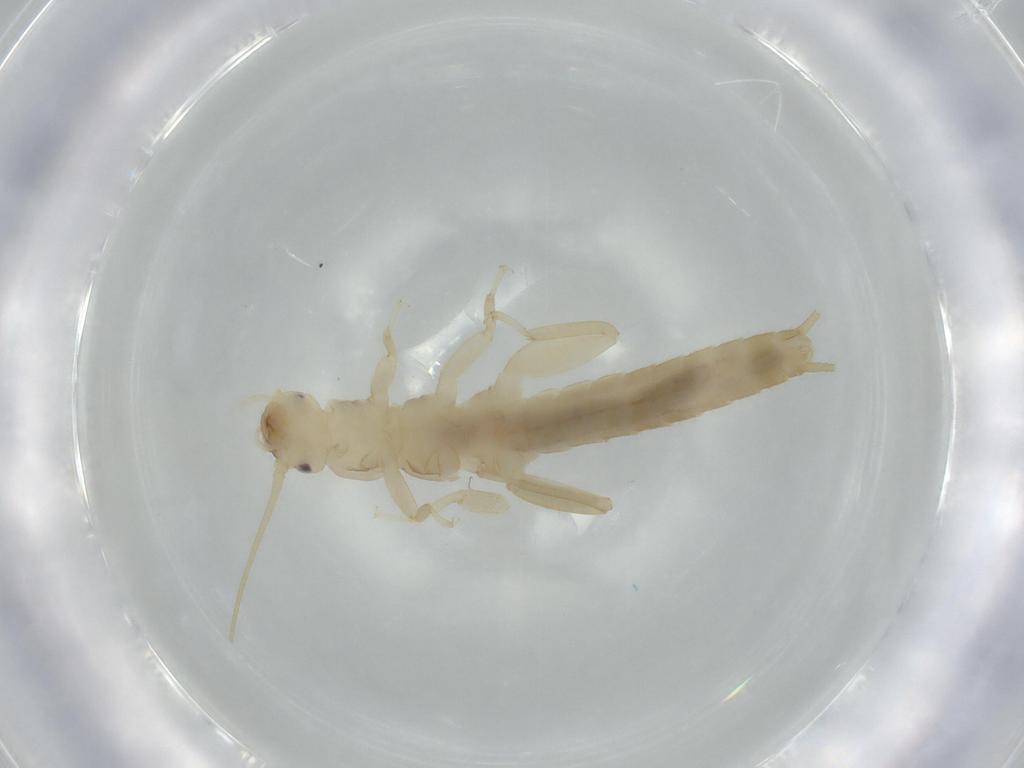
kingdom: Animalia
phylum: Arthropoda
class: Insecta
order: Plecoptera
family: Leuctridae
